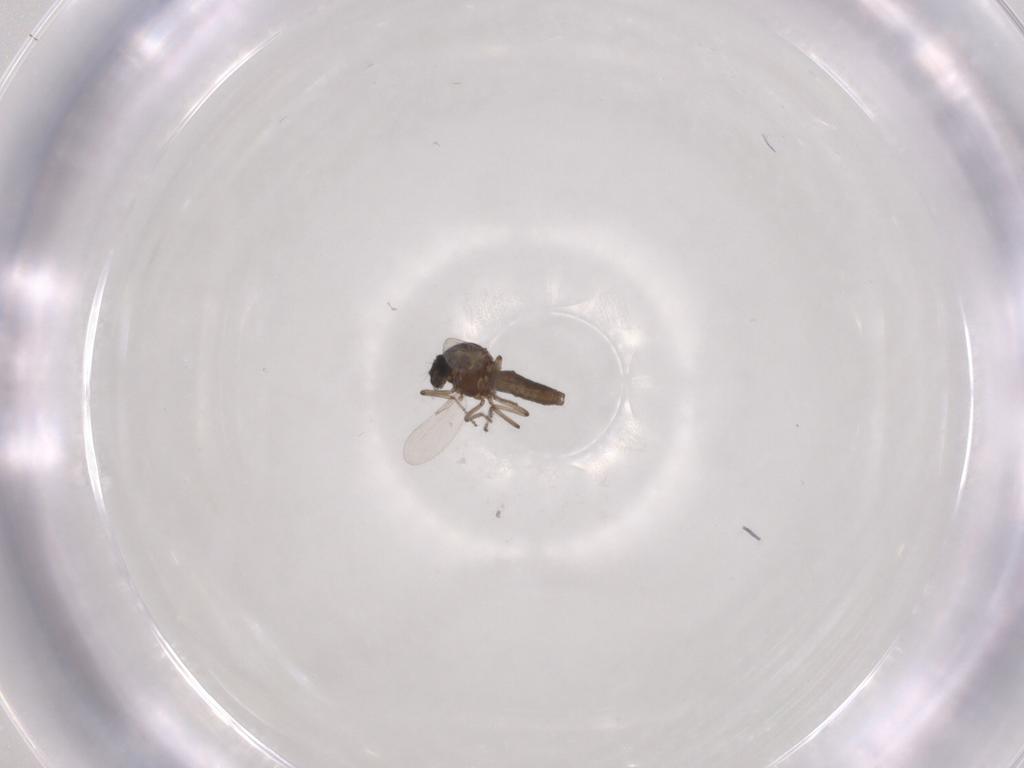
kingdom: Animalia
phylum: Arthropoda
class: Insecta
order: Diptera
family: Ceratopogonidae
